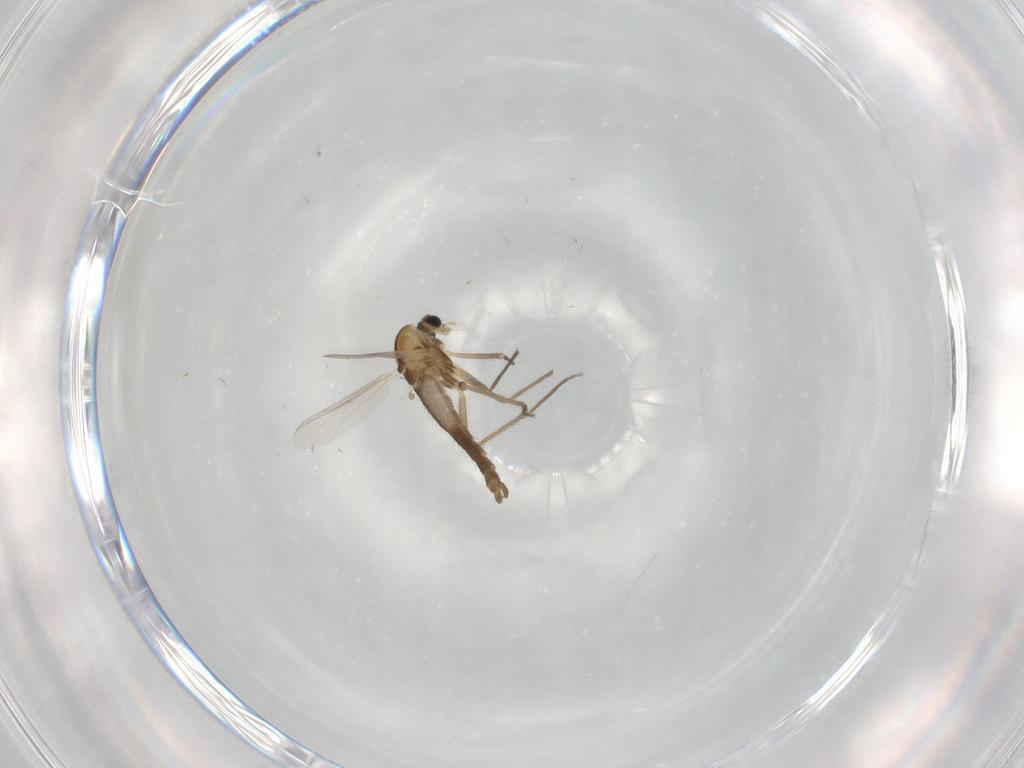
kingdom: Animalia
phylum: Arthropoda
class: Insecta
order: Diptera
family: Chironomidae
